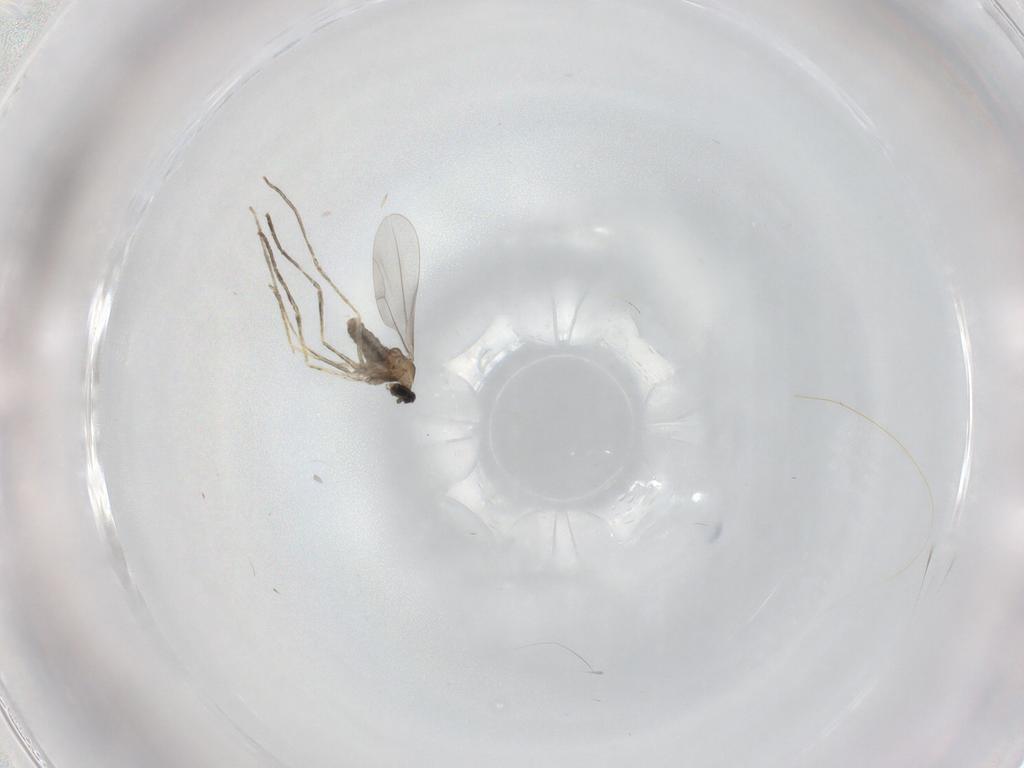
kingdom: Animalia
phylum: Arthropoda
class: Insecta
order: Diptera
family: Cecidomyiidae
